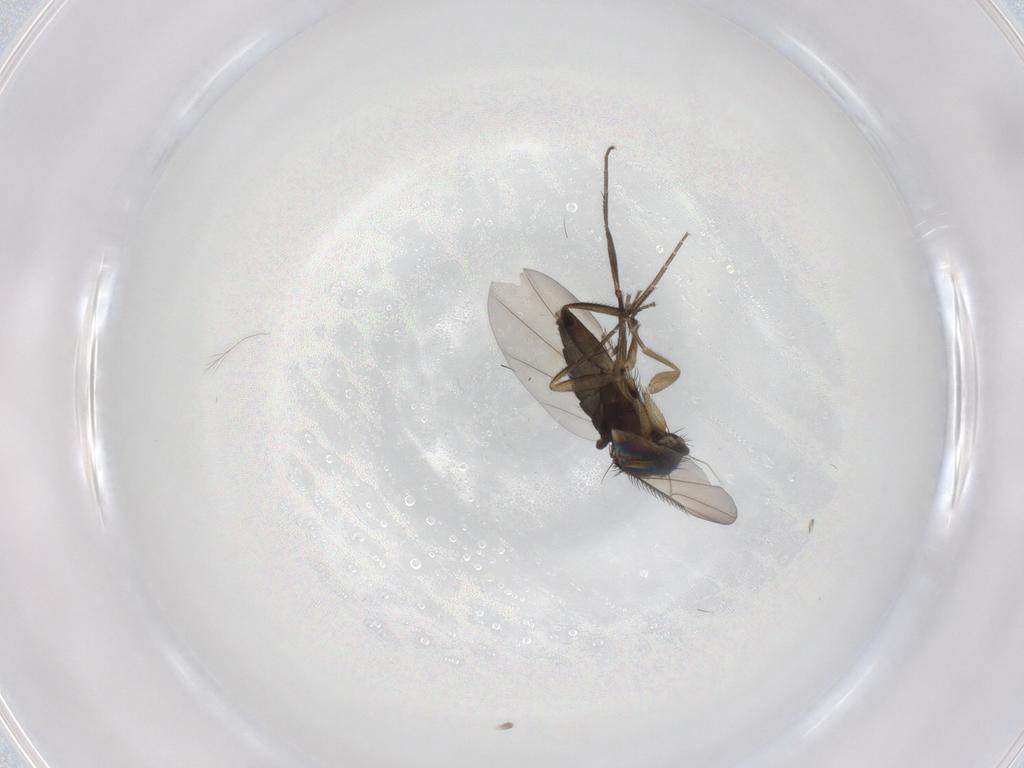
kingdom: Animalia
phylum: Arthropoda
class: Insecta
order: Diptera
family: Phoridae
